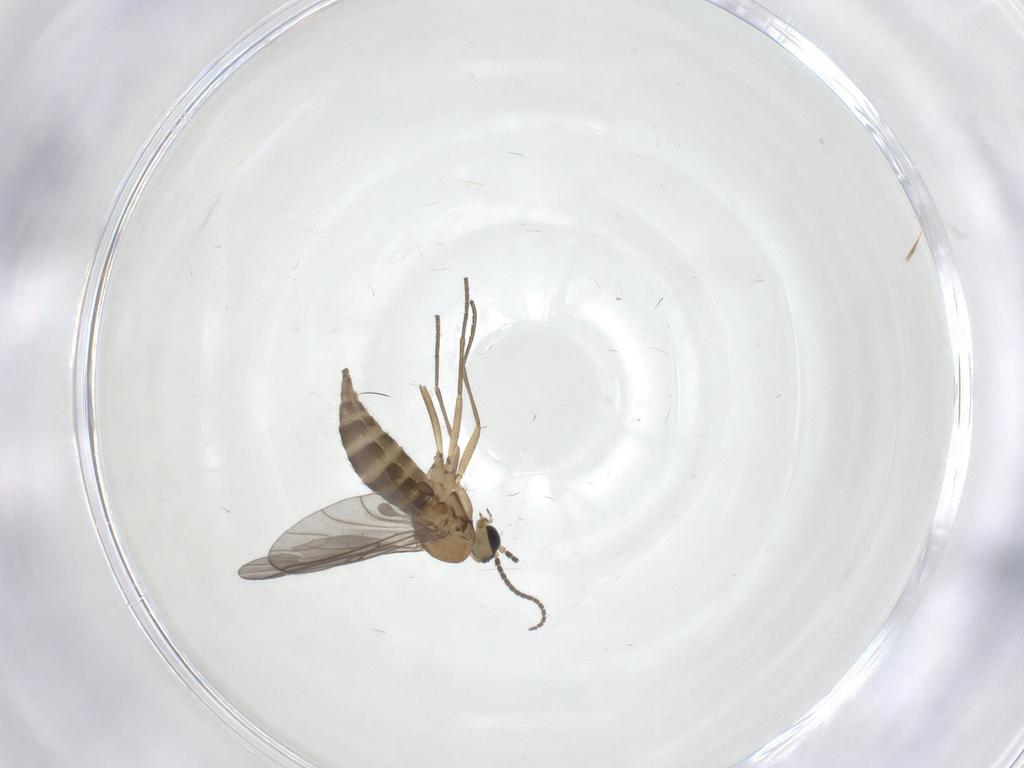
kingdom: Animalia
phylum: Arthropoda
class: Insecta
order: Diptera
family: Sciaridae
